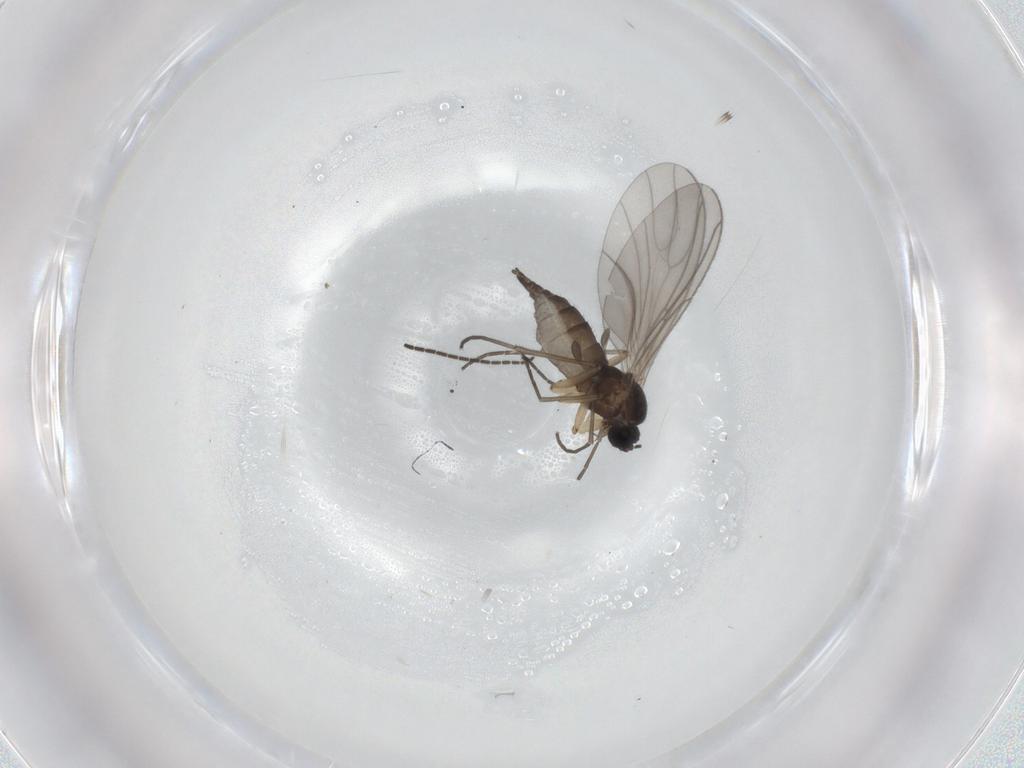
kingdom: Animalia
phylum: Arthropoda
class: Insecta
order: Diptera
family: Sciaridae
